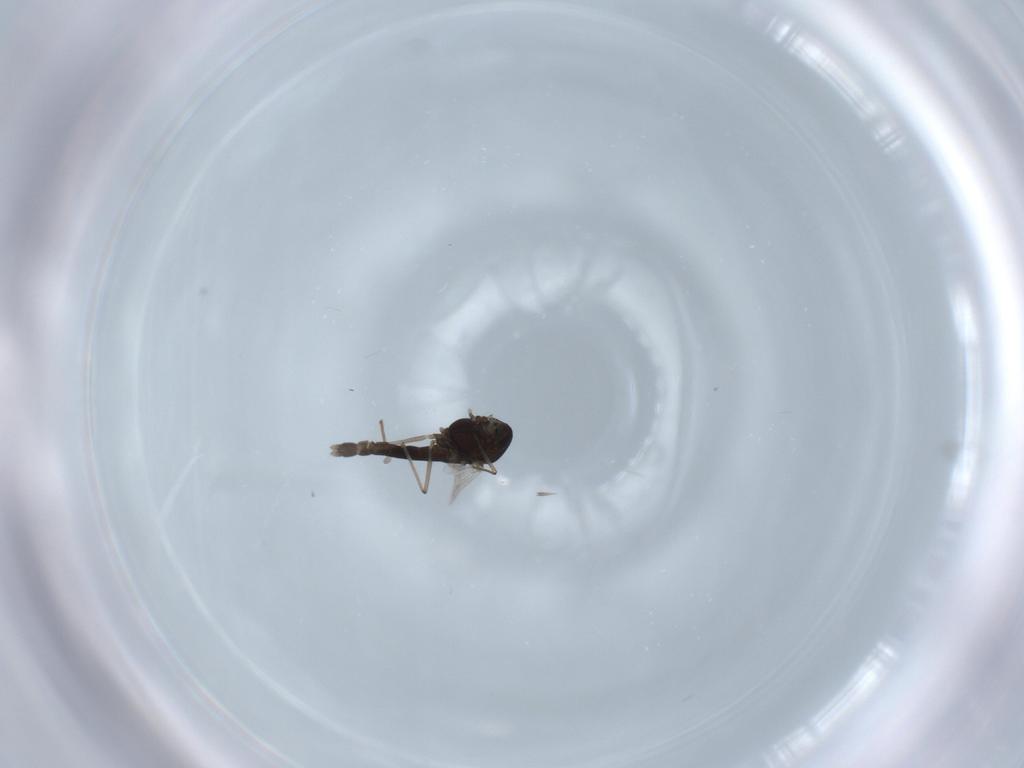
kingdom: Animalia
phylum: Arthropoda
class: Insecta
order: Diptera
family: Chironomidae
